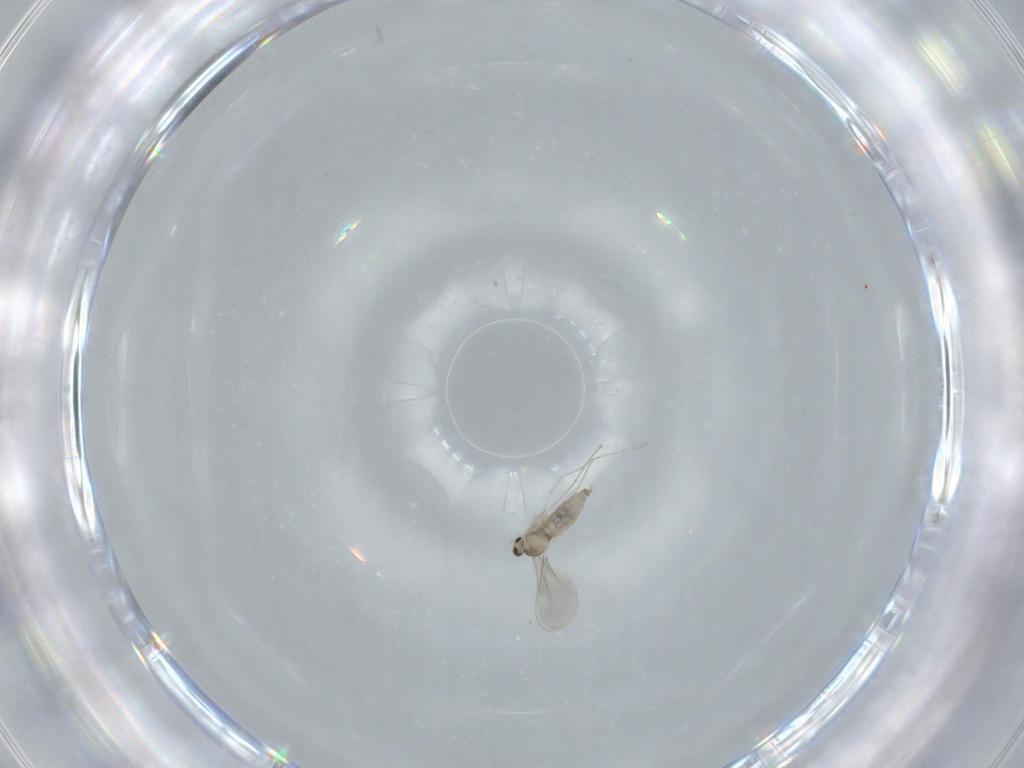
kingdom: Animalia
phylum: Arthropoda
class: Insecta
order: Diptera
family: Cecidomyiidae
